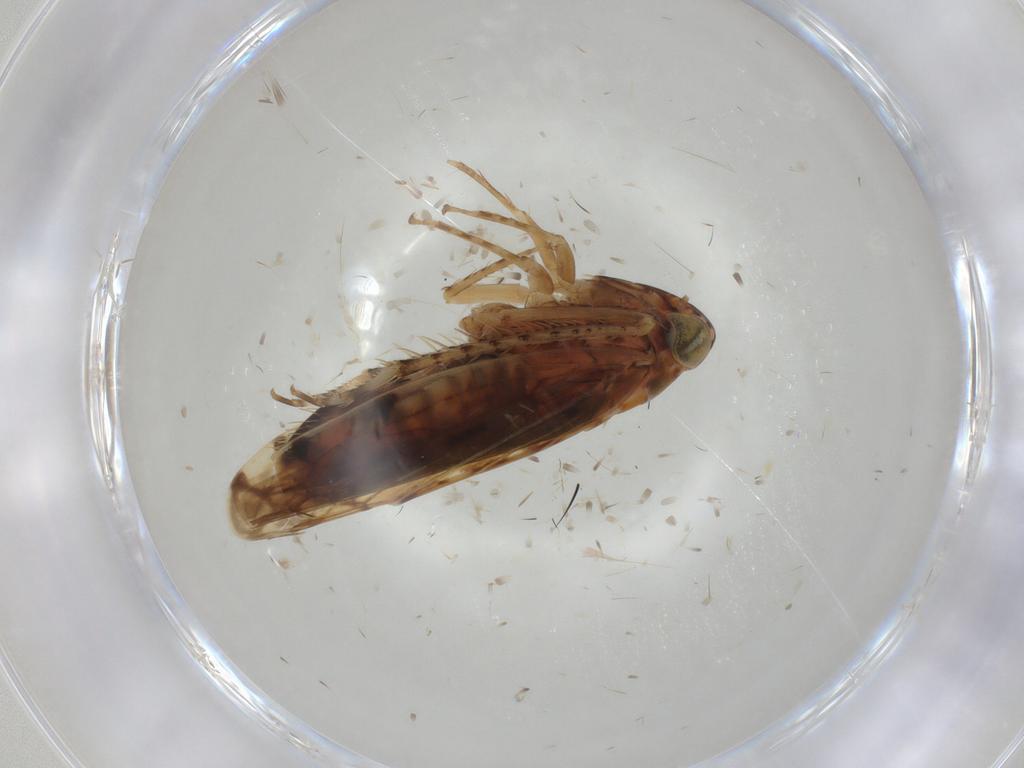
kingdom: Animalia
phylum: Arthropoda
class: Insecta
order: Hemiptera
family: Cicadellidae
